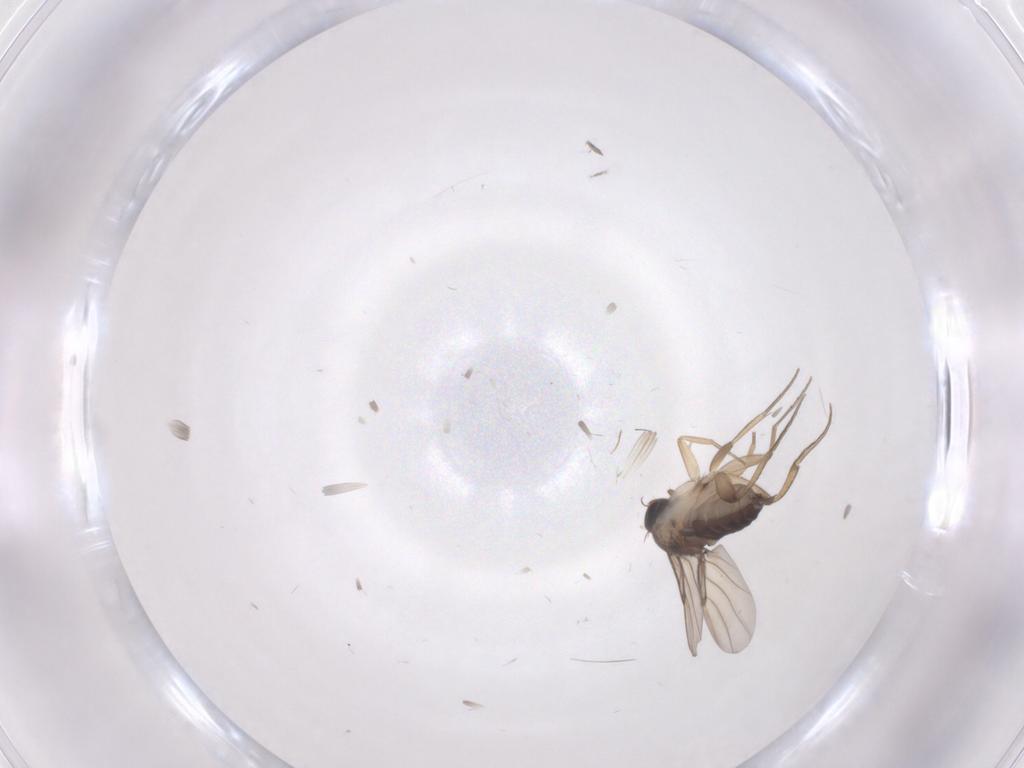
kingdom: Animalia
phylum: Arthropoda
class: Insecta
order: Diptera
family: Phoridae
